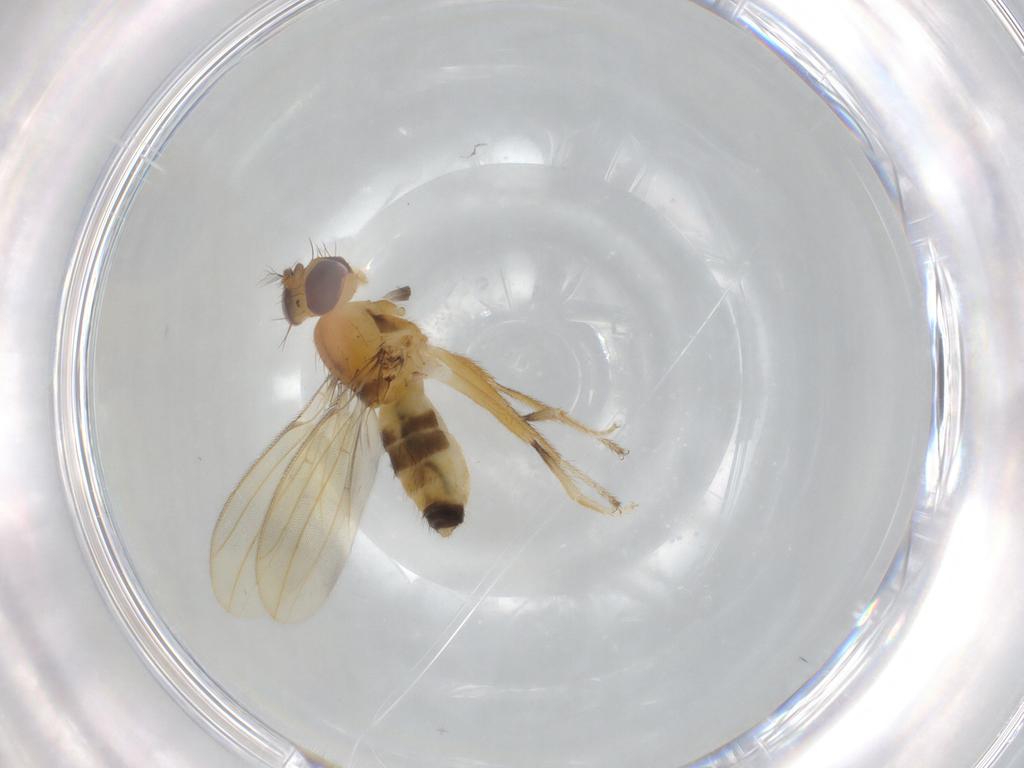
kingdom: Animalia
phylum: Arthropoda
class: Insecta
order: Diptera
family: Periscelididae
